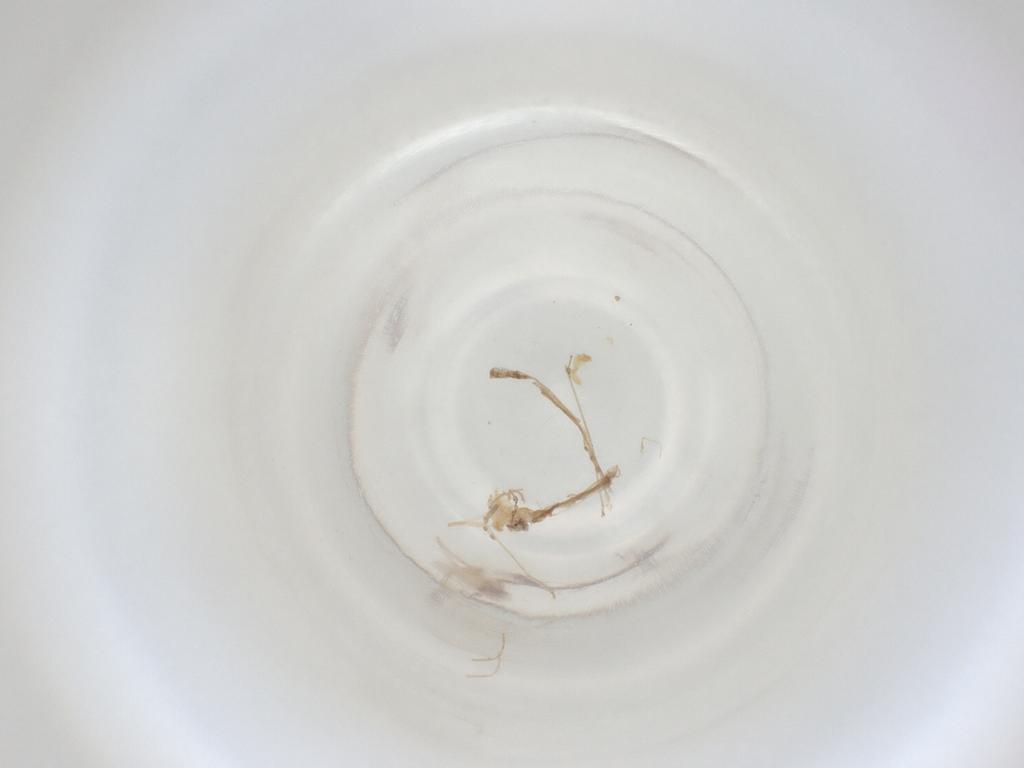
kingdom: Animalia
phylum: Arthropoda
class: Insecta
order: Diptera
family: Cecidomyiidae
